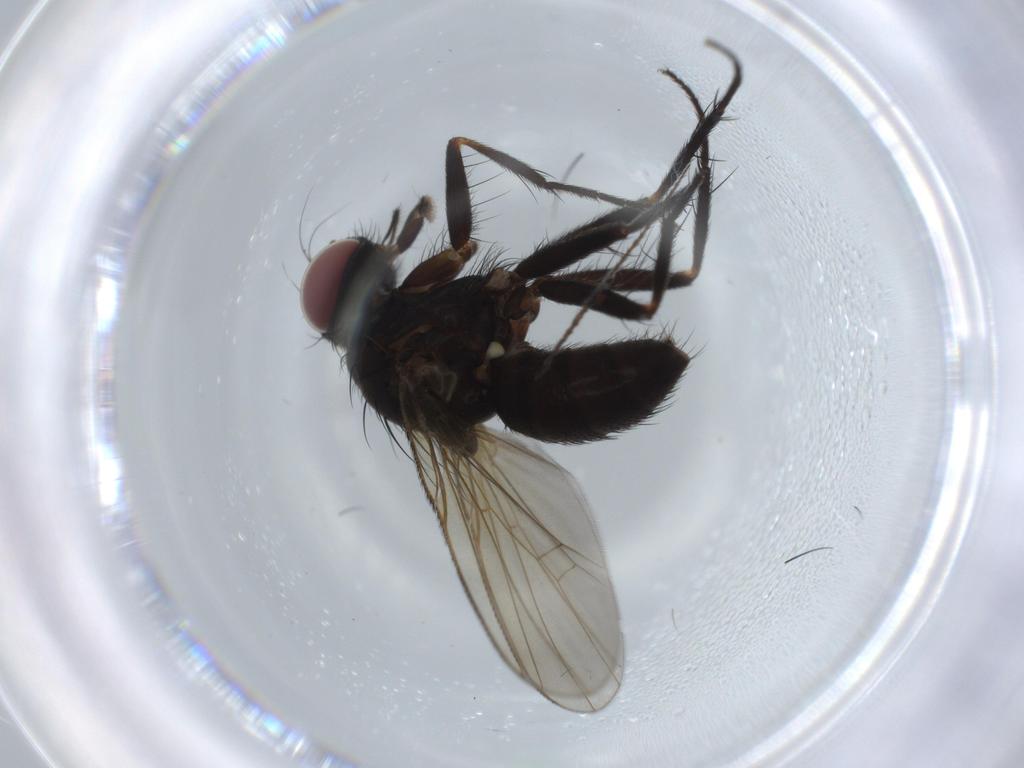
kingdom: Animalia
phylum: Arthropoda
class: Insecta
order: Diptera
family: Muscidae
